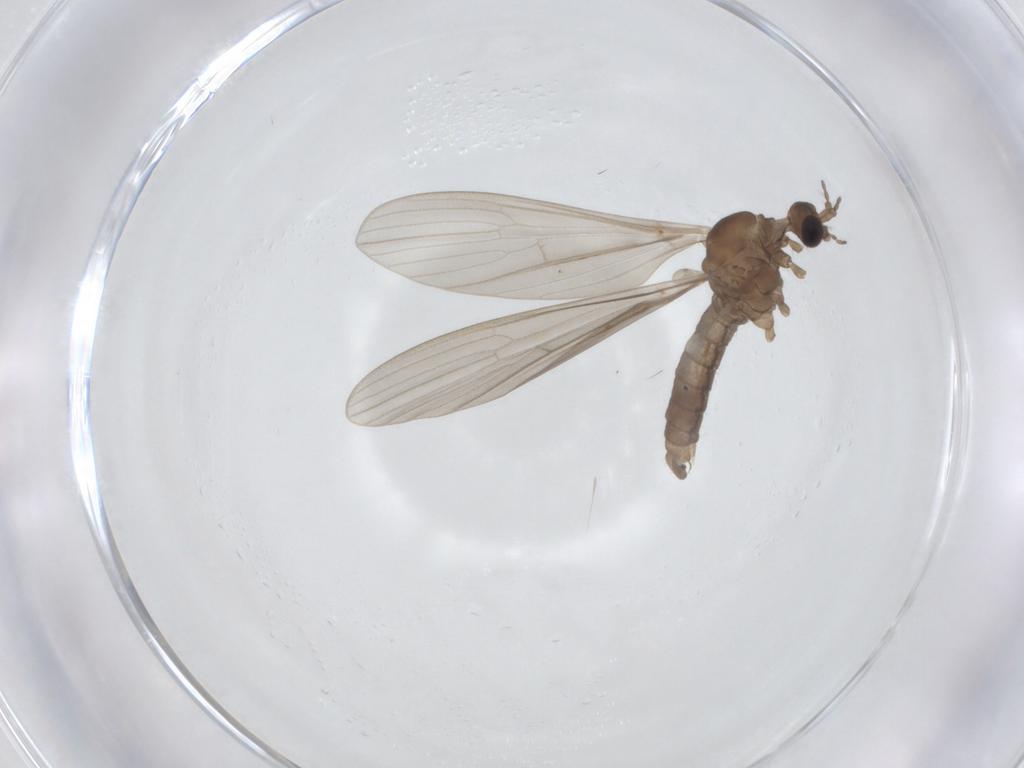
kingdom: Animalia
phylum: Arthropoda
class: Insecta
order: Diptera
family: Limoniidae
